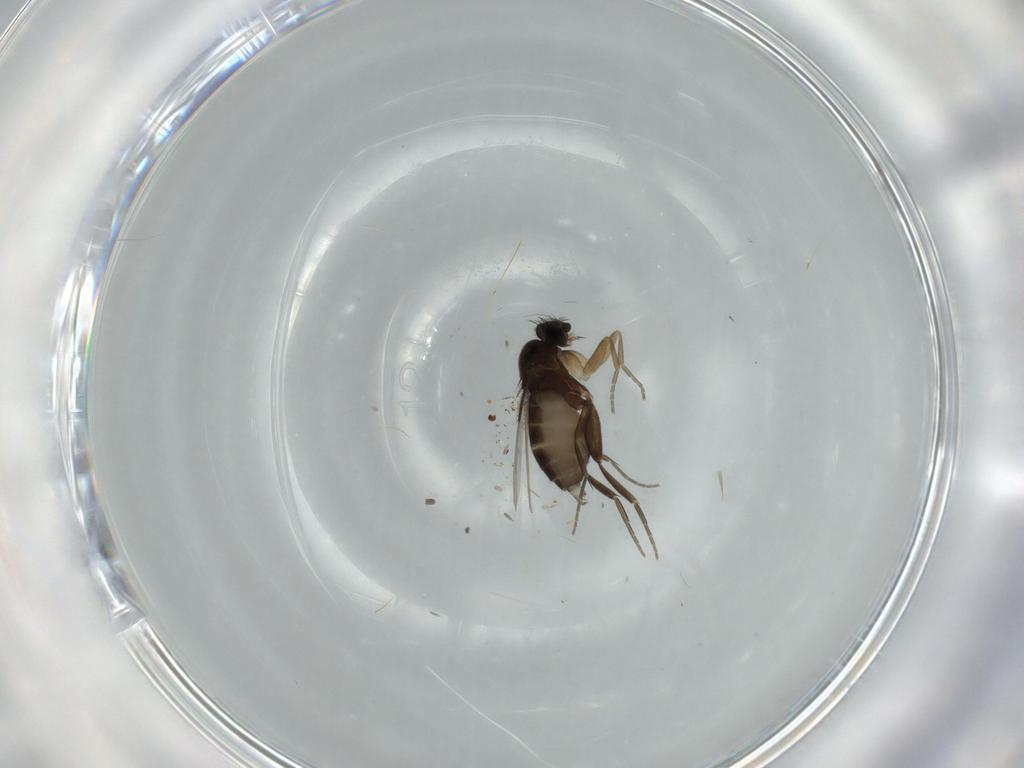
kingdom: Animalia
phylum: Arthropoda
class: Insecta
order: Diptera
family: Phoridae
